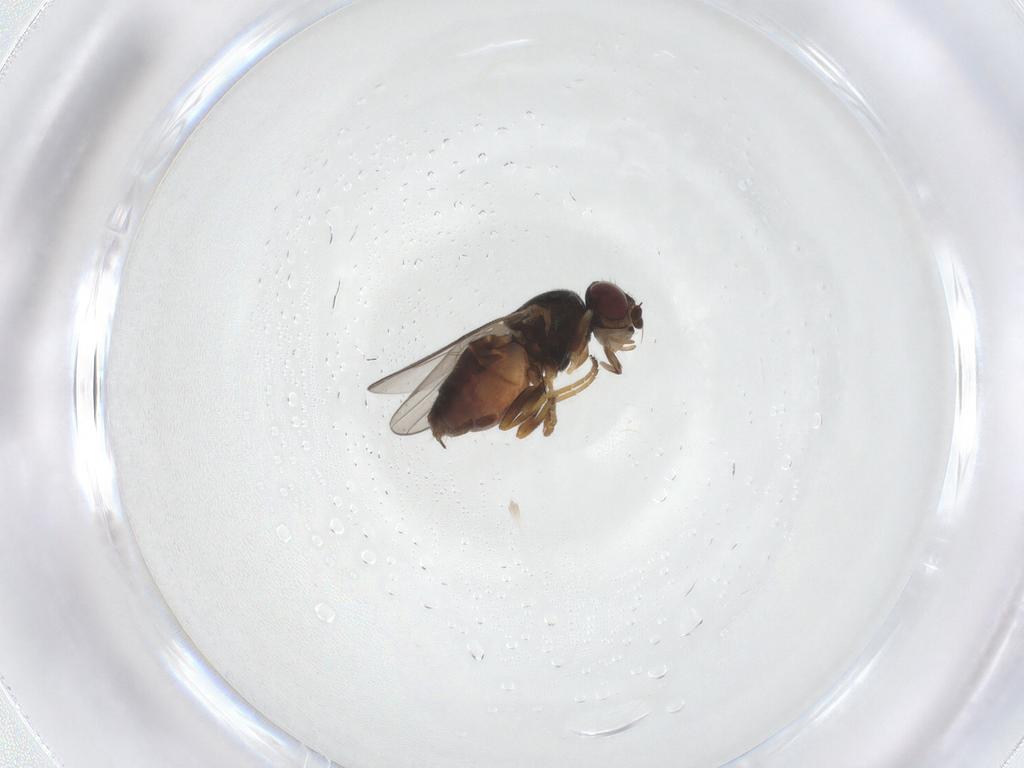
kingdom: Animalia
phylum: Arthropoda
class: Insecta
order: Diptera
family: Chloropidae
